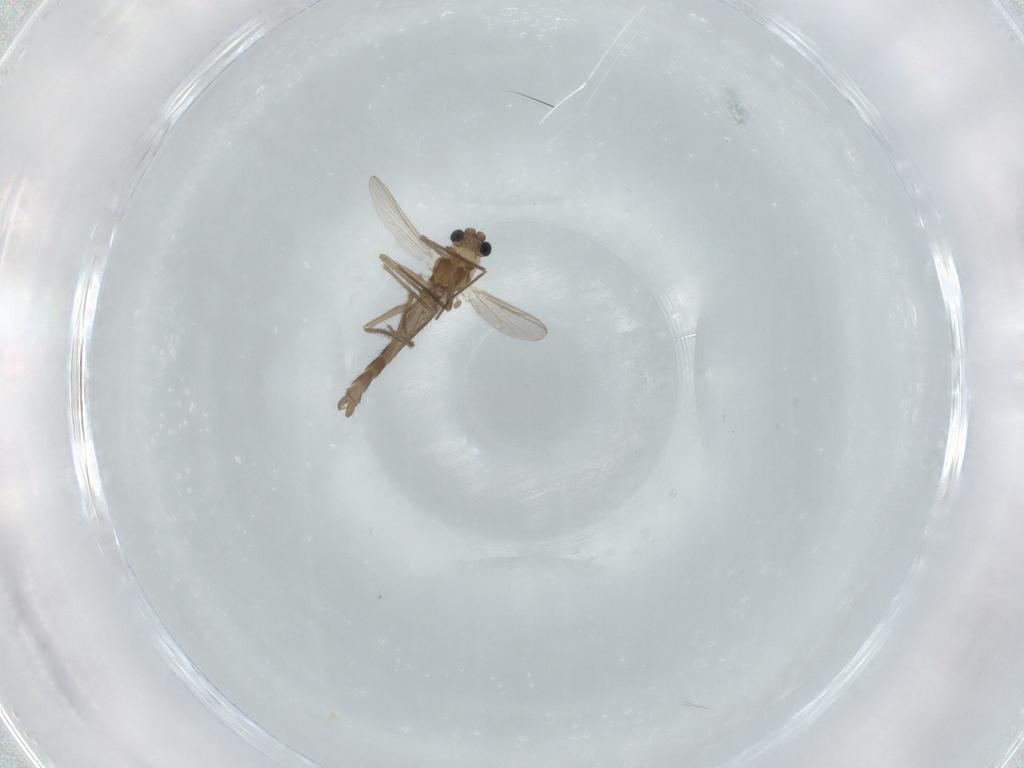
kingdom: Animalia
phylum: Arthropoda
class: Insecta
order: Diptera
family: Chironomidae
